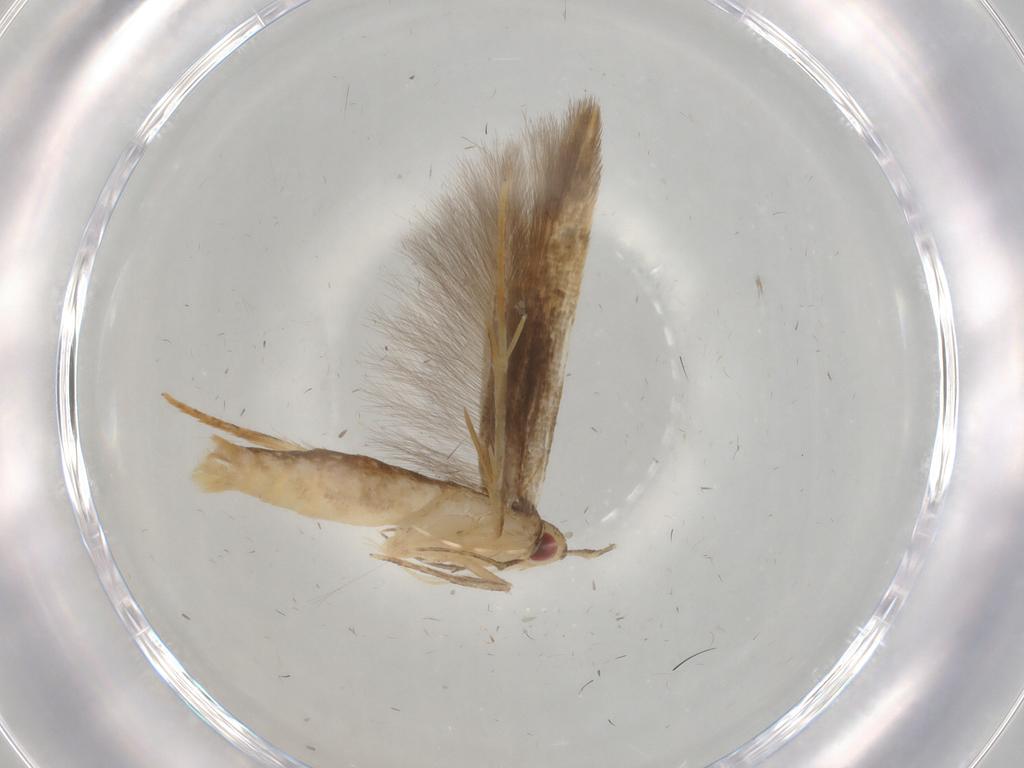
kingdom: Animalia
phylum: Arthropoda
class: Insecta
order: Lepidoptera
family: Gelechiidae
